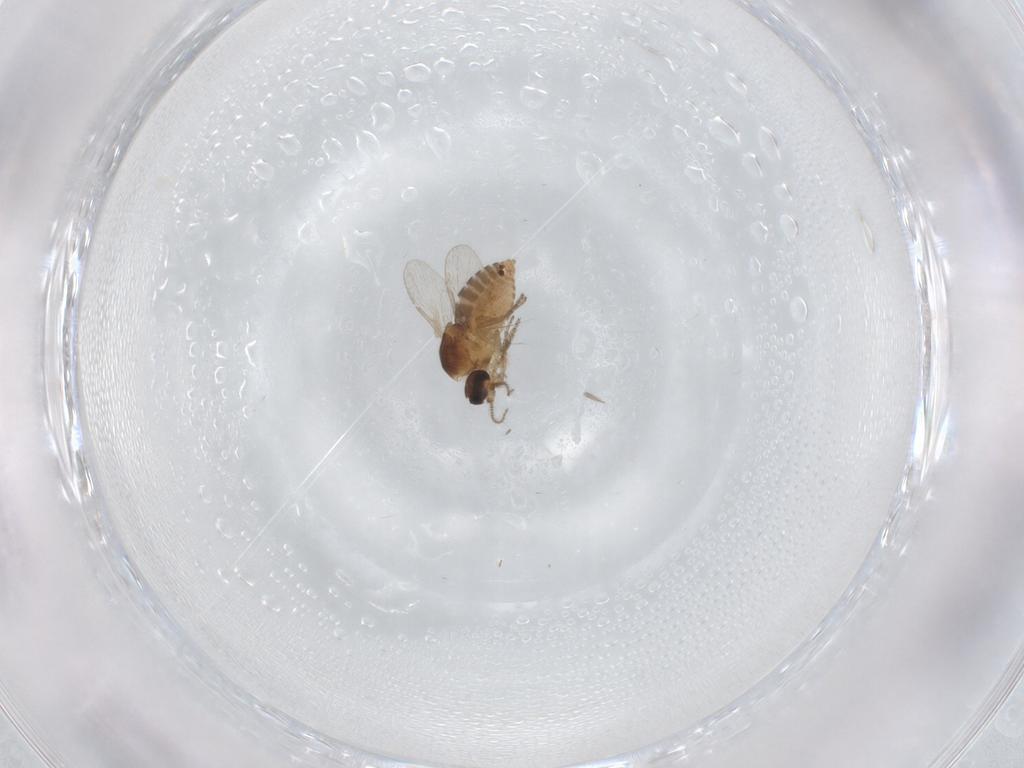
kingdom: Animalia
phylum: Arthropoda
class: Insecta
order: Diptera
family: Ceratopogonidae
